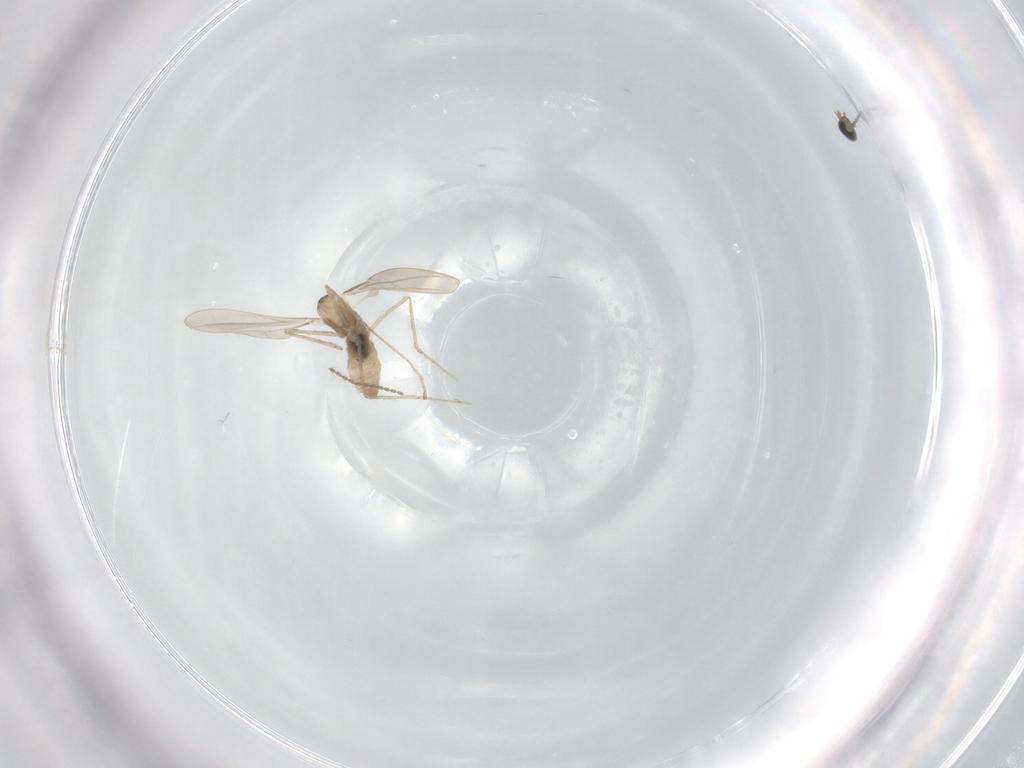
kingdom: Animalia
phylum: Arthropoda
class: Insecta
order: Diptera
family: Cecidomyiidae
